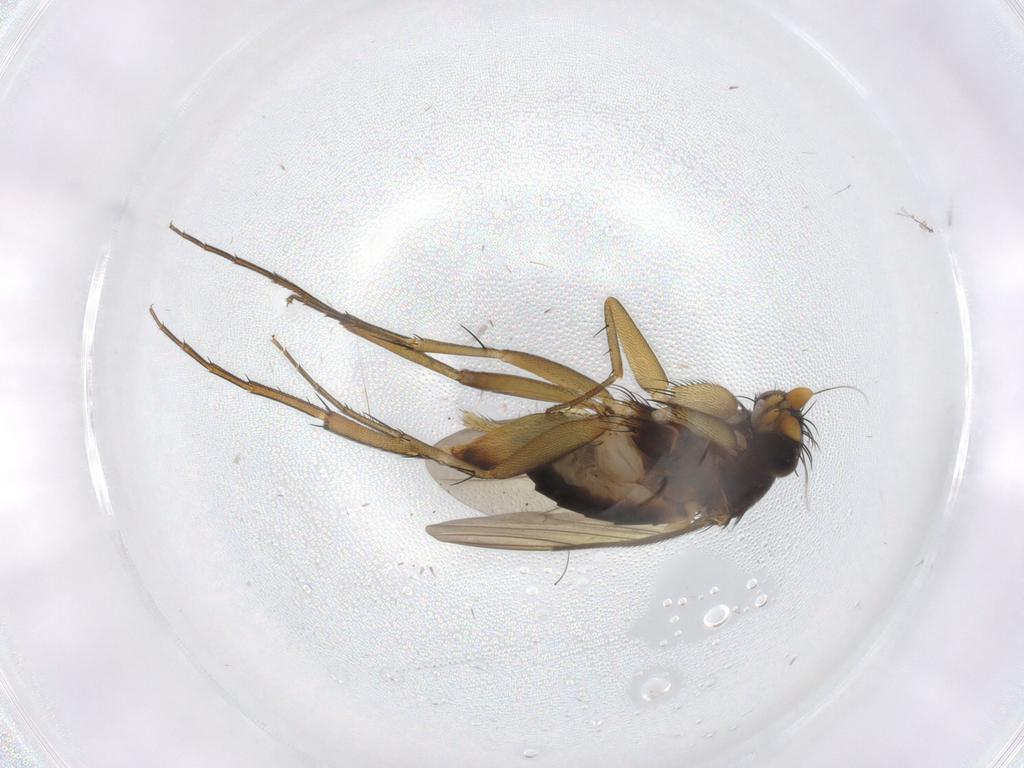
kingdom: Animalia
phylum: Arthropoda
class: Insecta
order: Diptera
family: Phoridae
